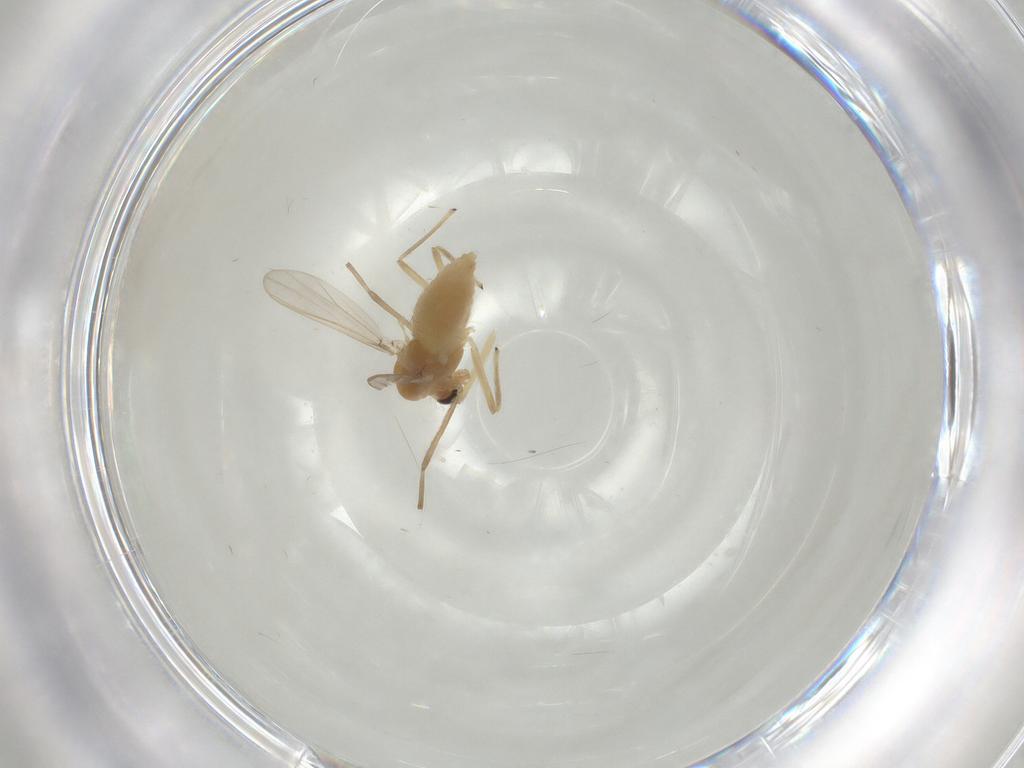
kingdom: Animalia
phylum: Arthropoda
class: Insecta
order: Diptera
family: Chironomidae
